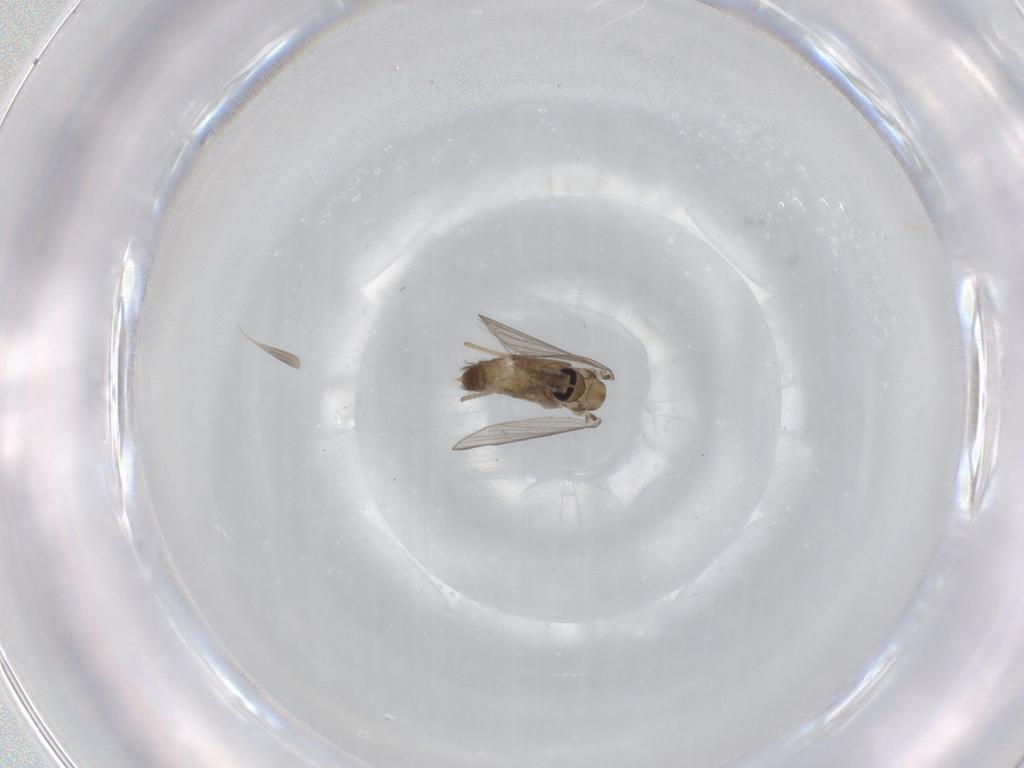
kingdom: Animalia
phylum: Arthropoda
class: Insecta
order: Diptera
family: Psychodidae
